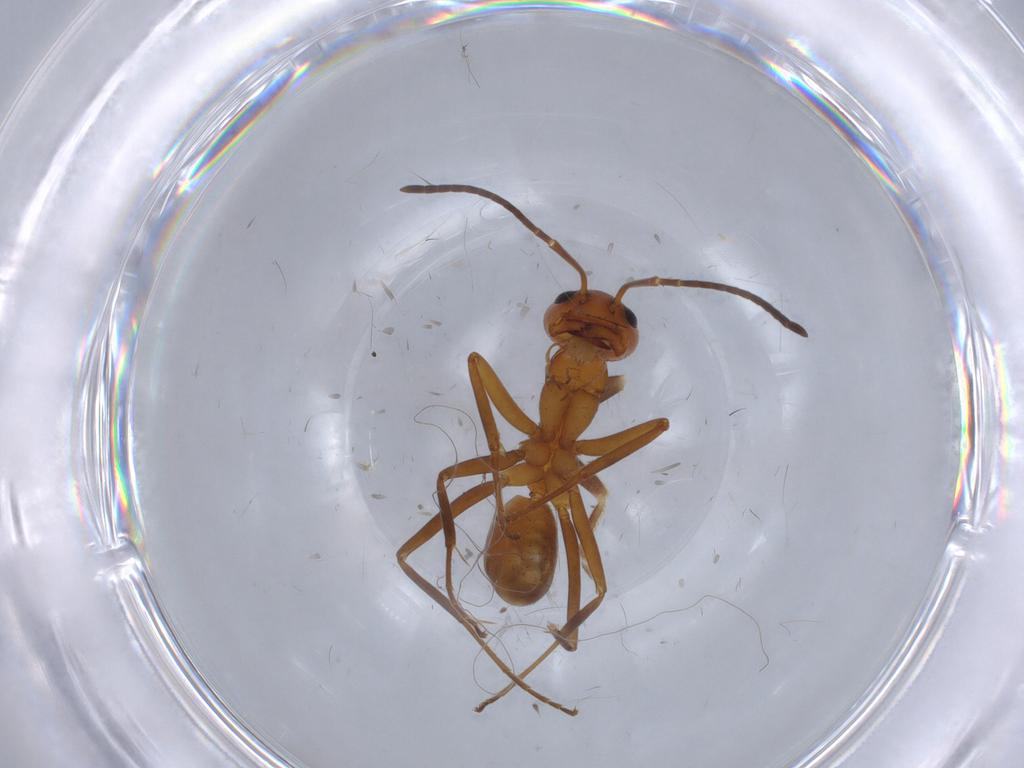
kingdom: Animalia
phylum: Arthropoda
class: Insecta
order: Hymenoptera
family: Formicidae
